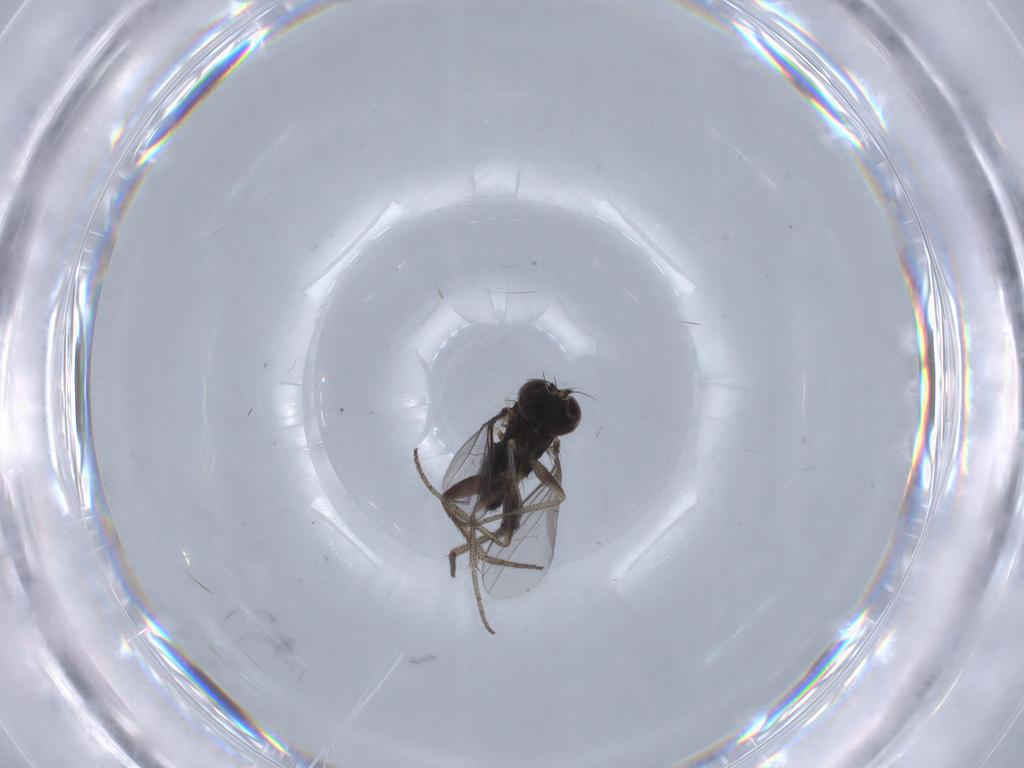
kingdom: Animalia
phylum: Arthropoda
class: Insecta
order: Diptera
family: Dolichopodidae
